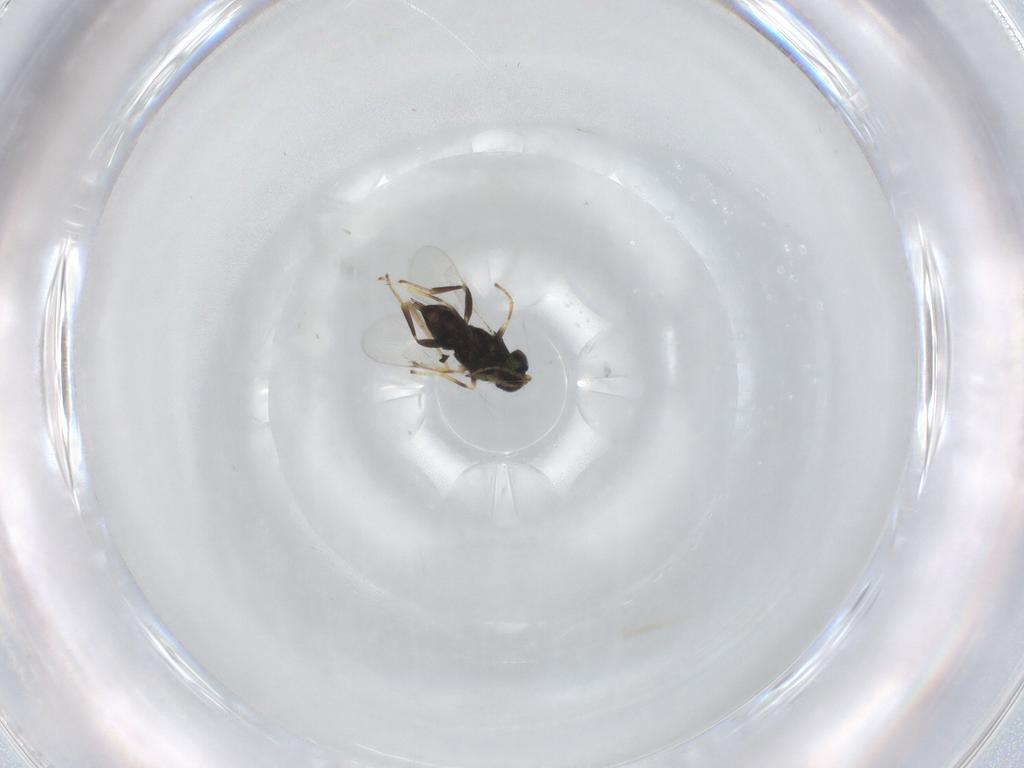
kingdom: Animalia
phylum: Arthropoda
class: Insecta
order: Hymenoptera
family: Encyrtidae
